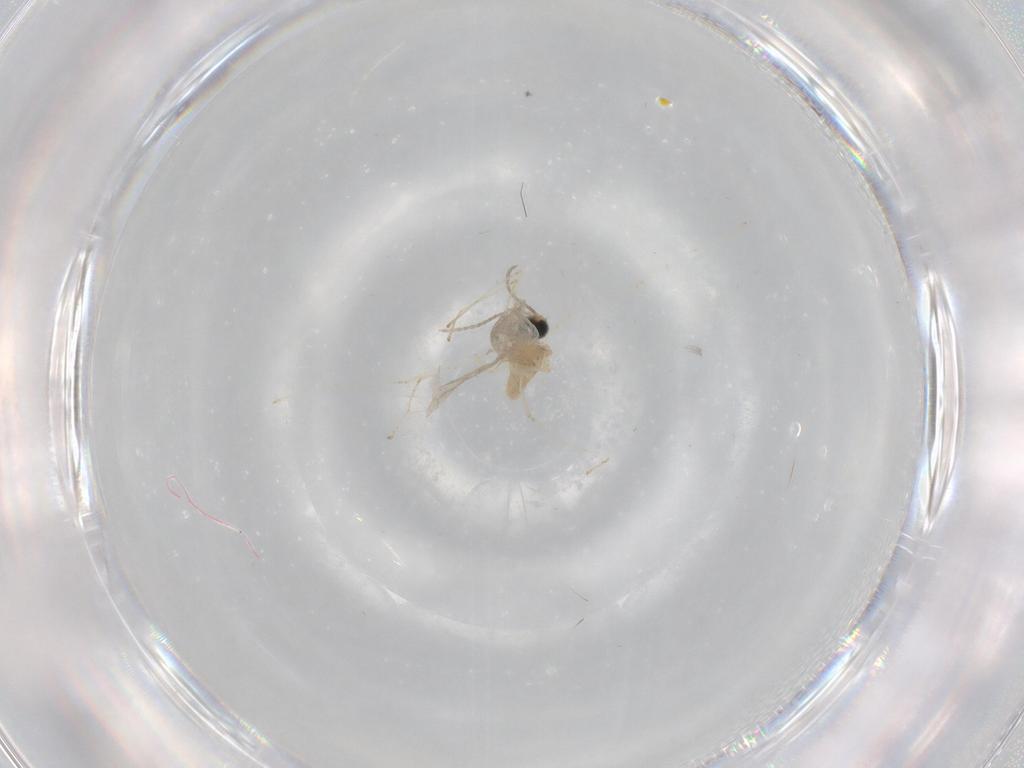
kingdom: Animalia
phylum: Arthropoda
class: Insecta
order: Diptera
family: Cecidomyiidae
